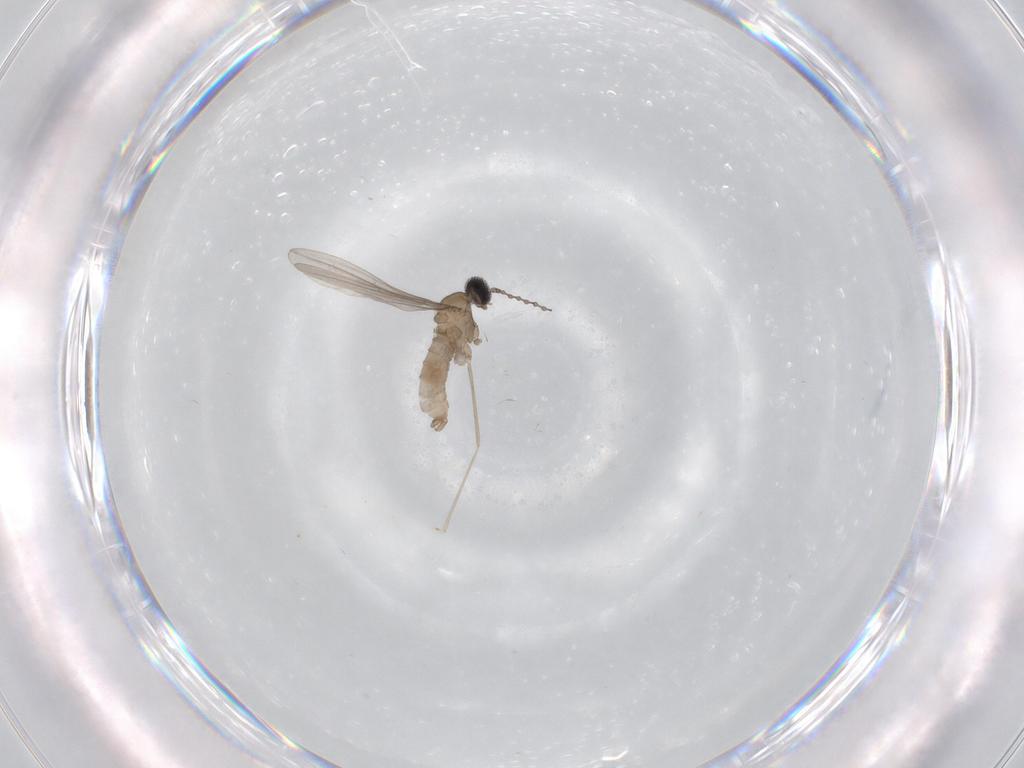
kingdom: Animalia
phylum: Arthropoda
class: Insecta
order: Diptera
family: Cecidomyiidae
